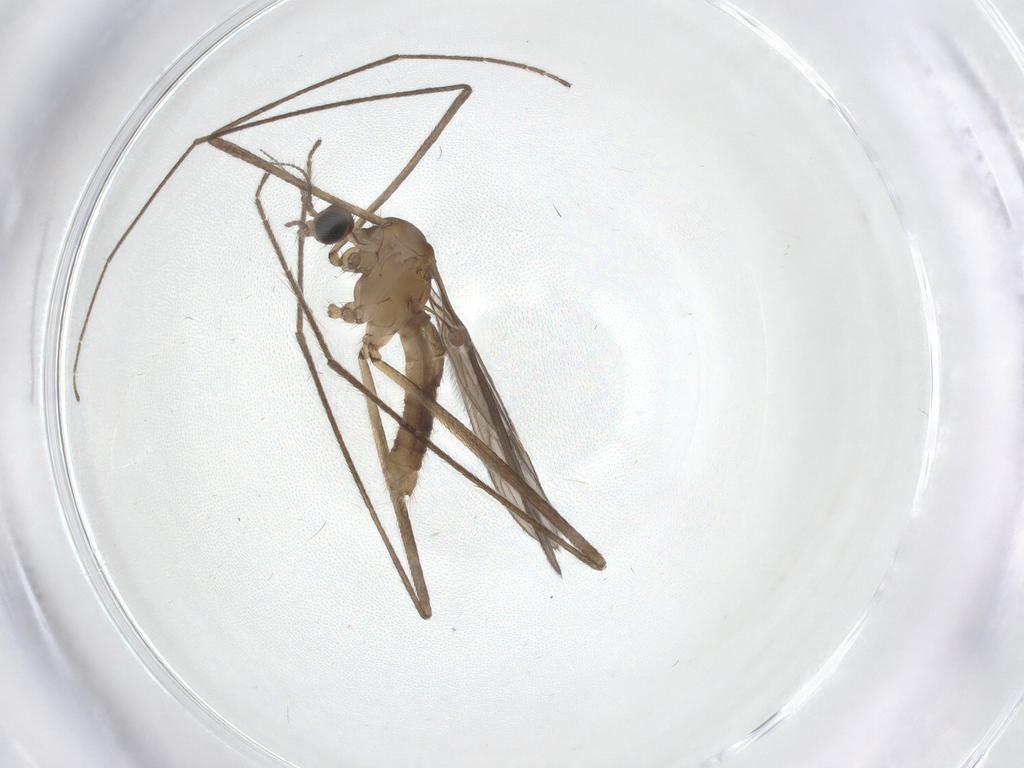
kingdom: Animalia
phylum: Arthropoda
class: Insecta
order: Diptera
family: Limoniidae
